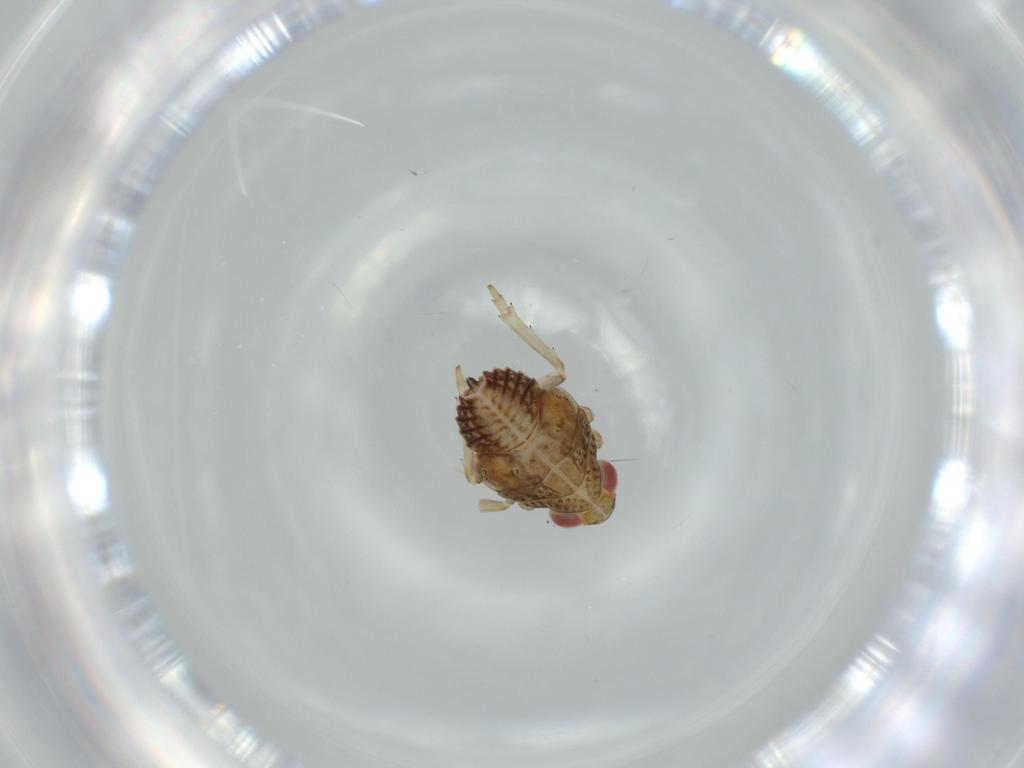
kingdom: Animalia
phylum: Arthropoda
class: Insecta
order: Hemiptera
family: Issidae
